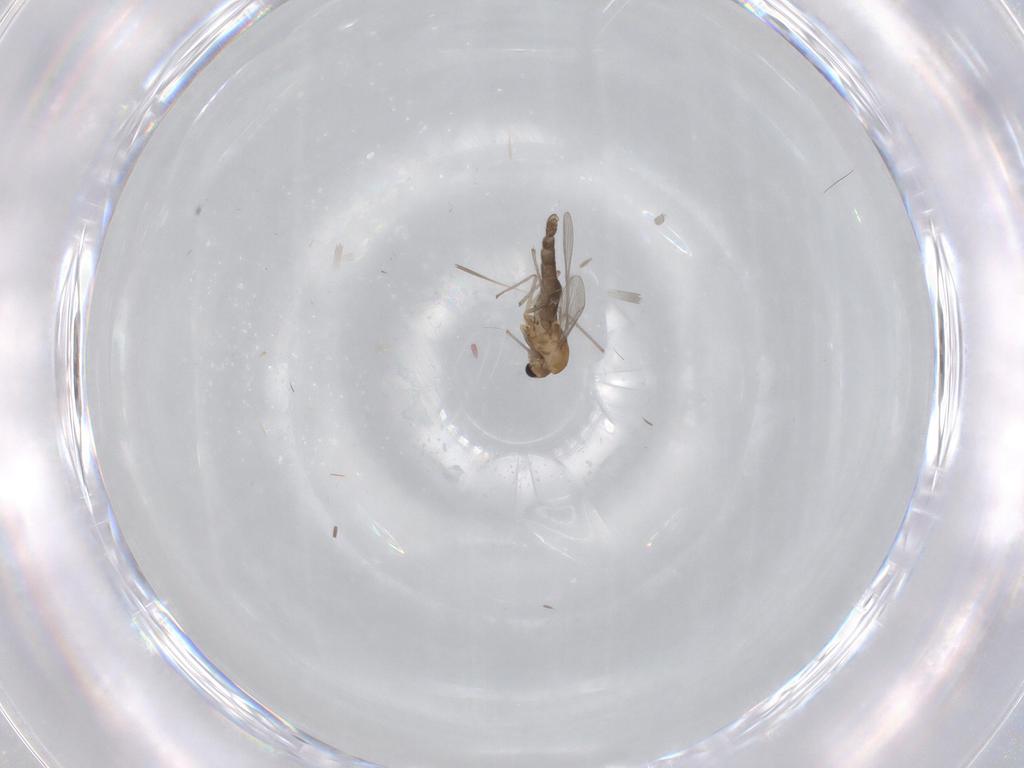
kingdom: Animalia
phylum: Arthropoda
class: Insecta
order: Diptera
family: Chironomidae
